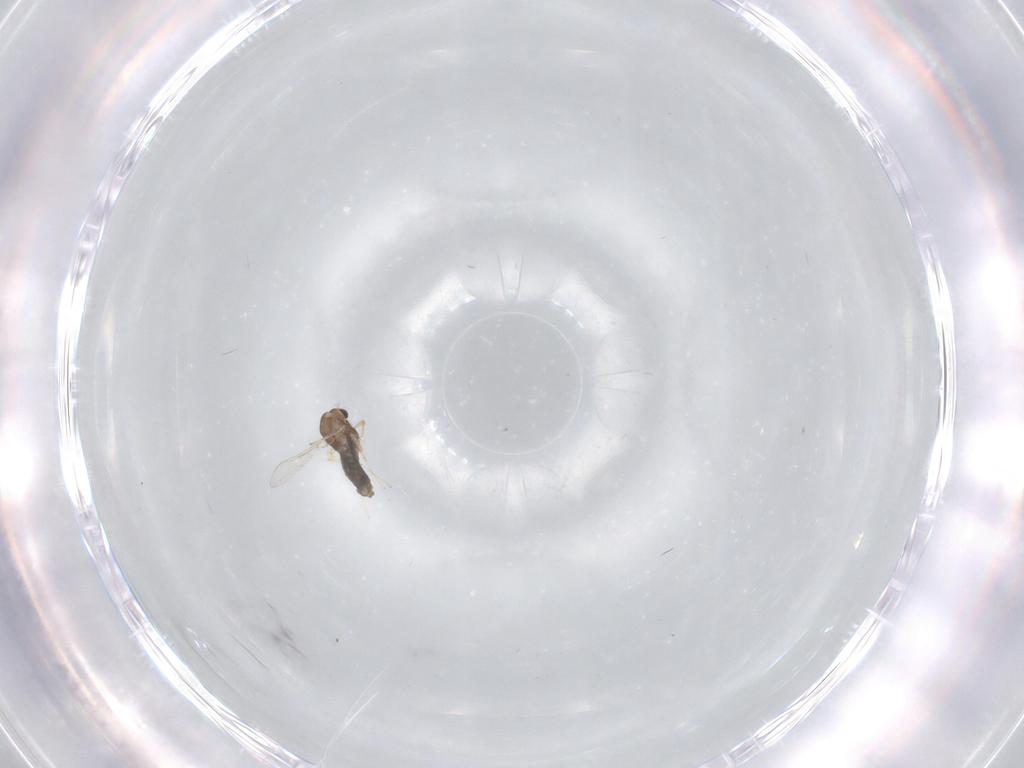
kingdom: Animalia
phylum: Arthropoda
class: Insecta
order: Diptera
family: Chironomidae
